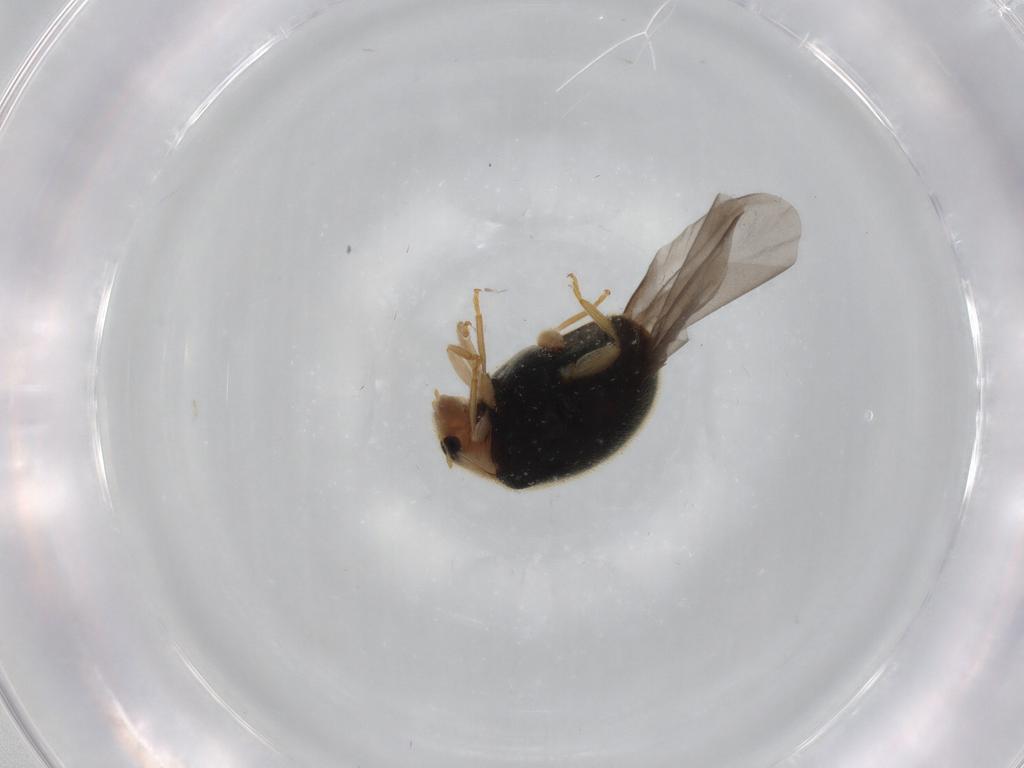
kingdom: Animalia
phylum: Arthropoda
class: Insecta
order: Coleoptera
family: Coccinellidae
